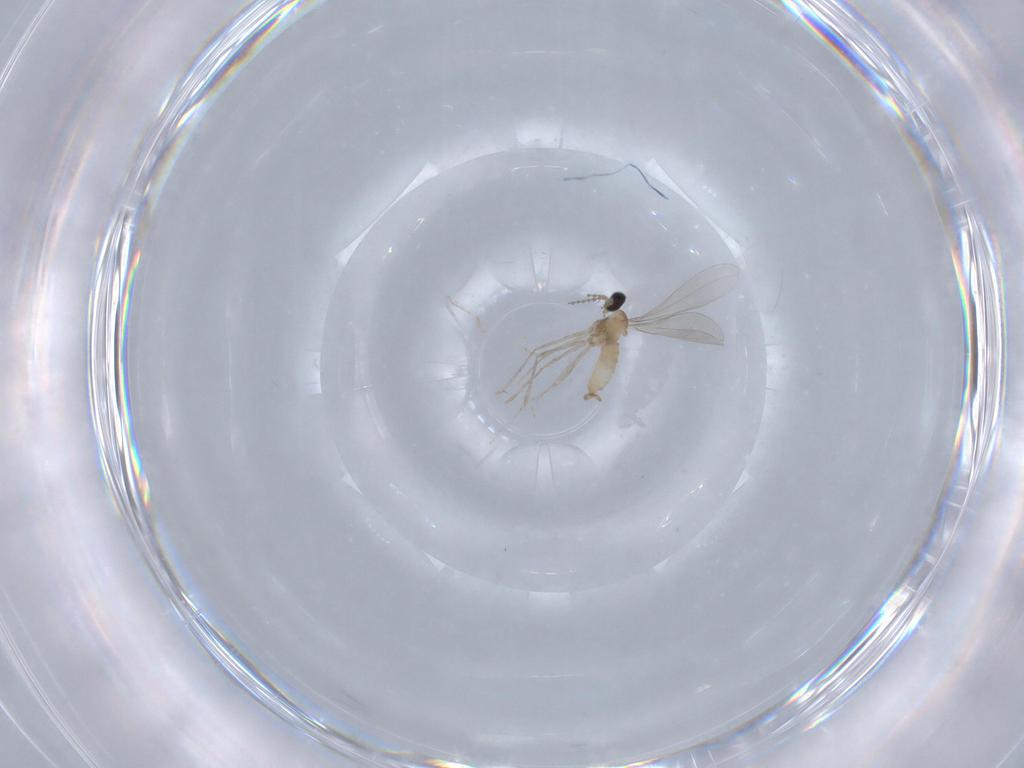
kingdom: Animalia
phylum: Arthropoda
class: Insecta
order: Diptera
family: Cecidomyiidae
